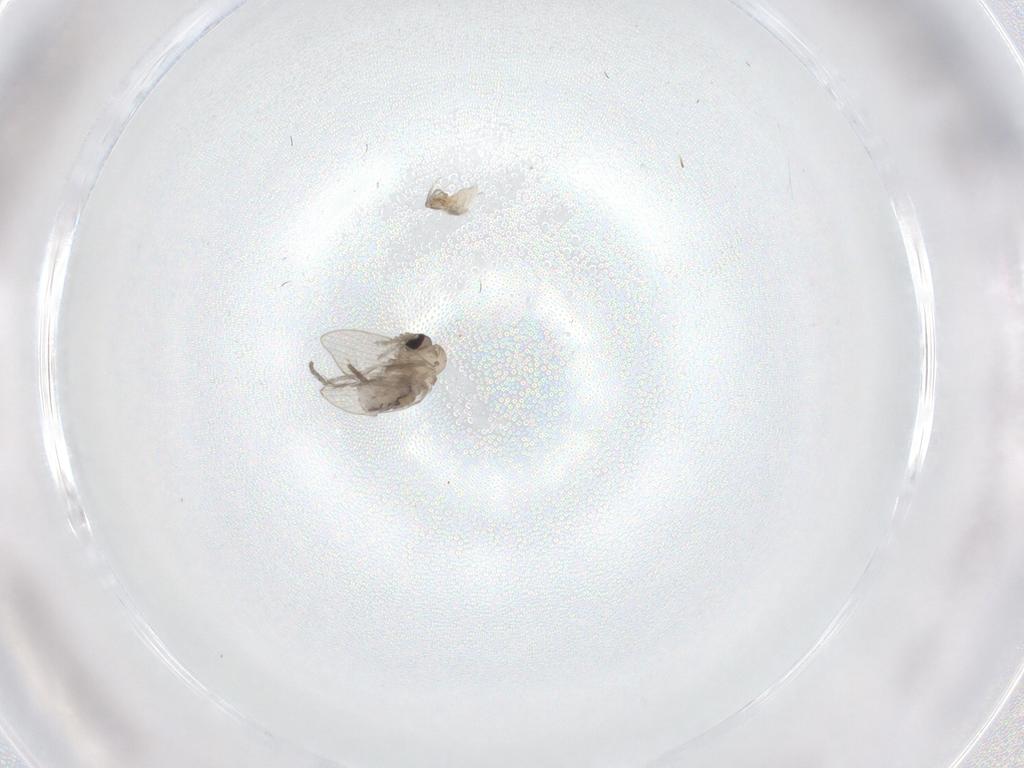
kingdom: Animalia
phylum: Arthropoda
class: Insecta
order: Diptera
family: Psychodidae
